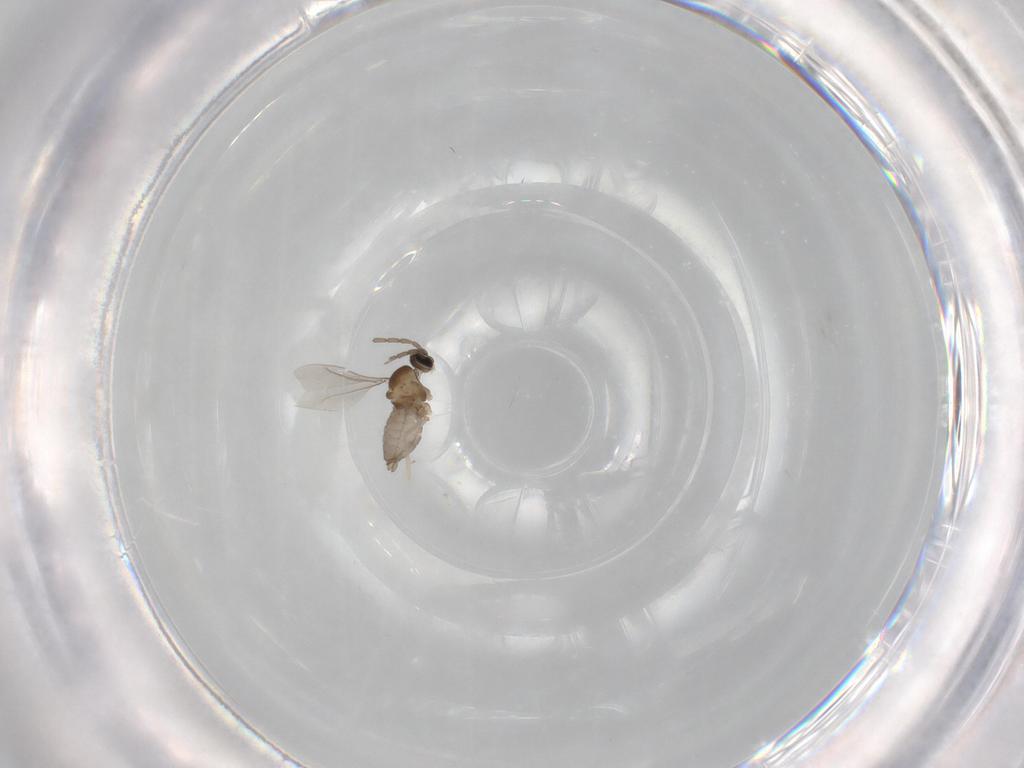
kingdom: Animalia
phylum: Arthropoda
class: Insecta
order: Diptera
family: Cecidomyiidae
